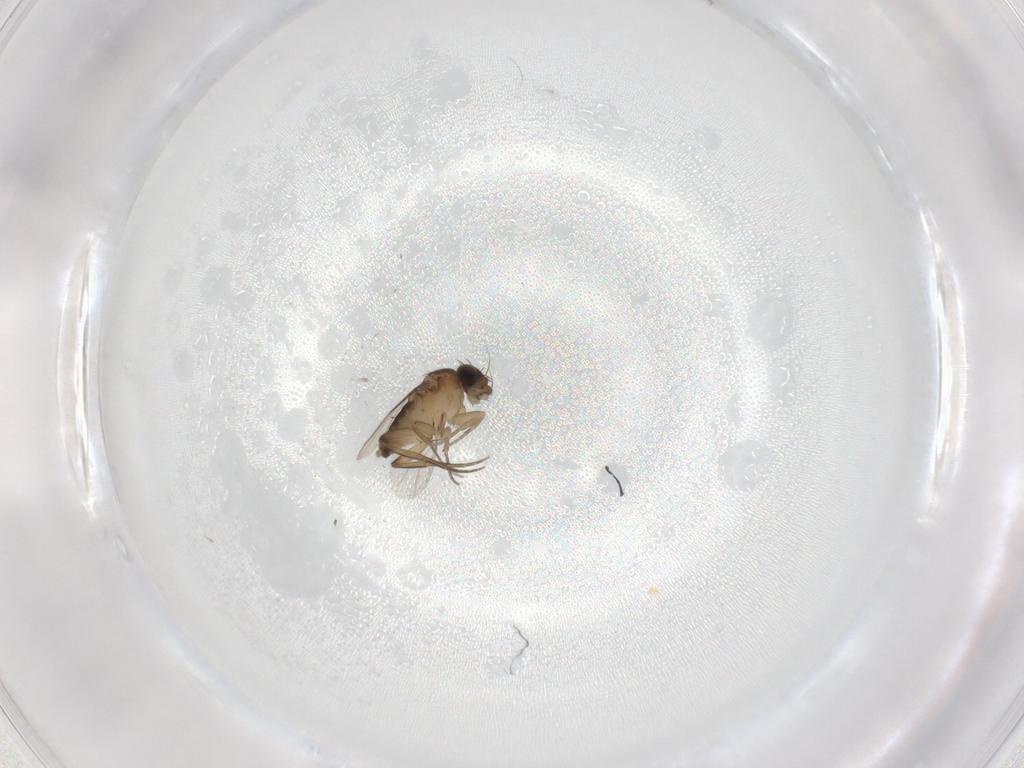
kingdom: Animalia
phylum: Arthropoda
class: Insecta
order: Diptera
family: Phoridae
